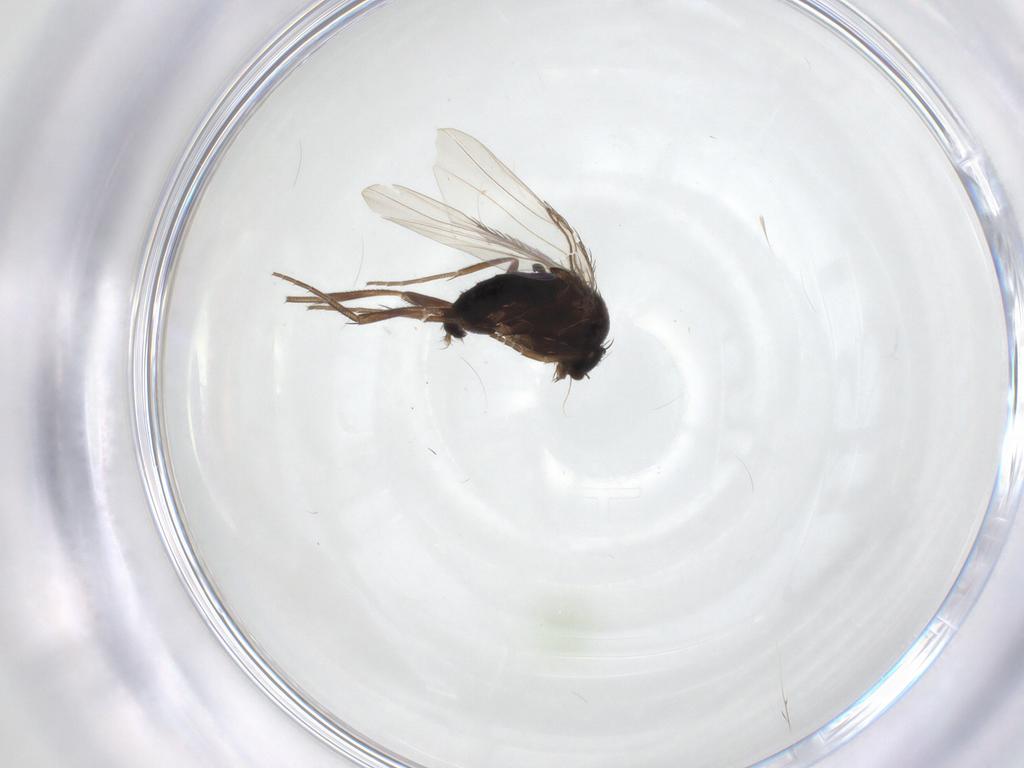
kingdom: Animalia
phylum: Arthropoda
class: Insecta
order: Diptera
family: Phoridae
